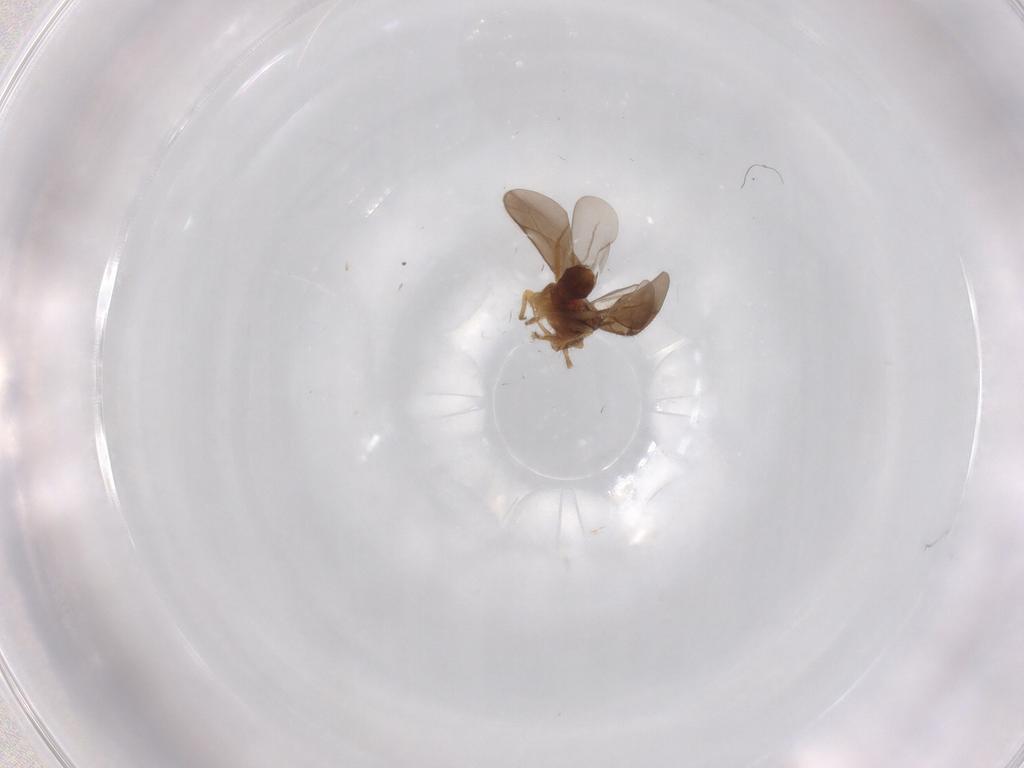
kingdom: Animalia
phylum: Arthropoda
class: Insecta
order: Hemiptera
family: Ceratocombidae
